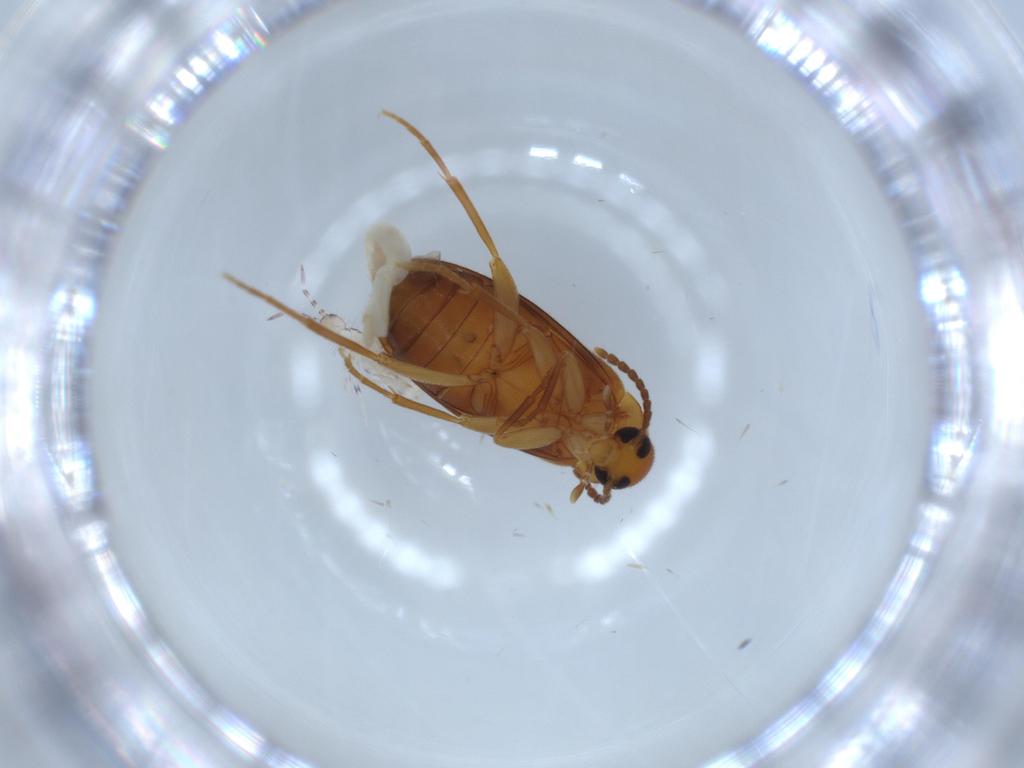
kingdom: Animalia
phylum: Arthropoda
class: Insecta
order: Coleoptera
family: Scraptiidae
